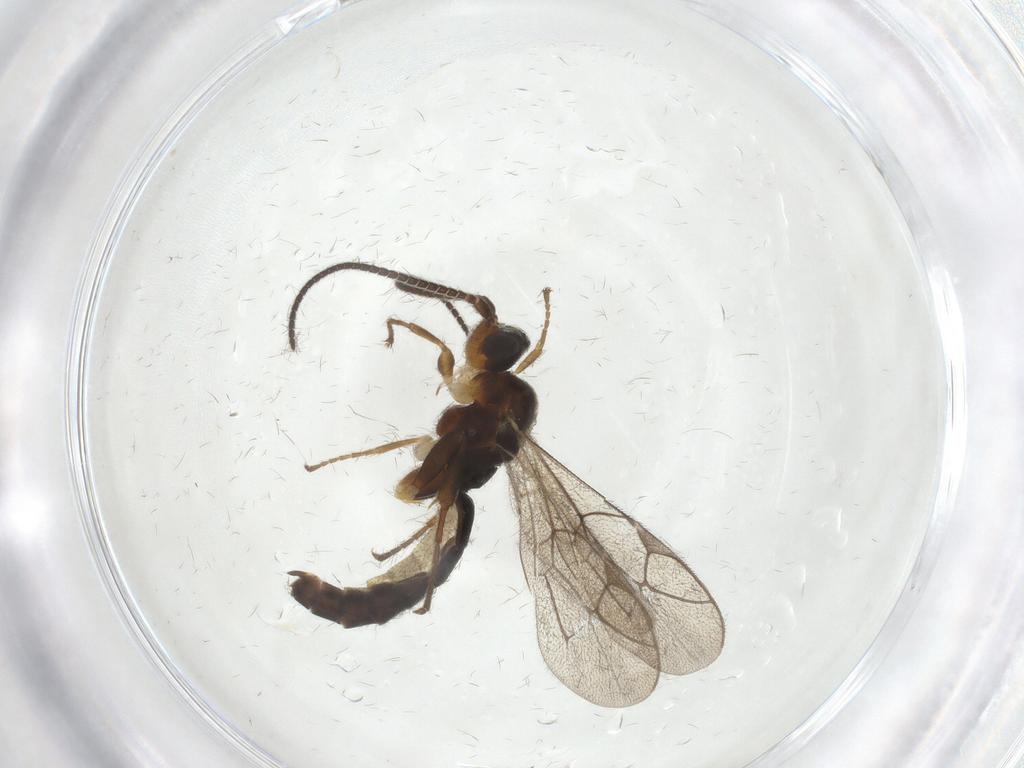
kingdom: Animalia
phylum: Arthropoda
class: Insecta
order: Hymenoptera
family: Ichneumonidae
